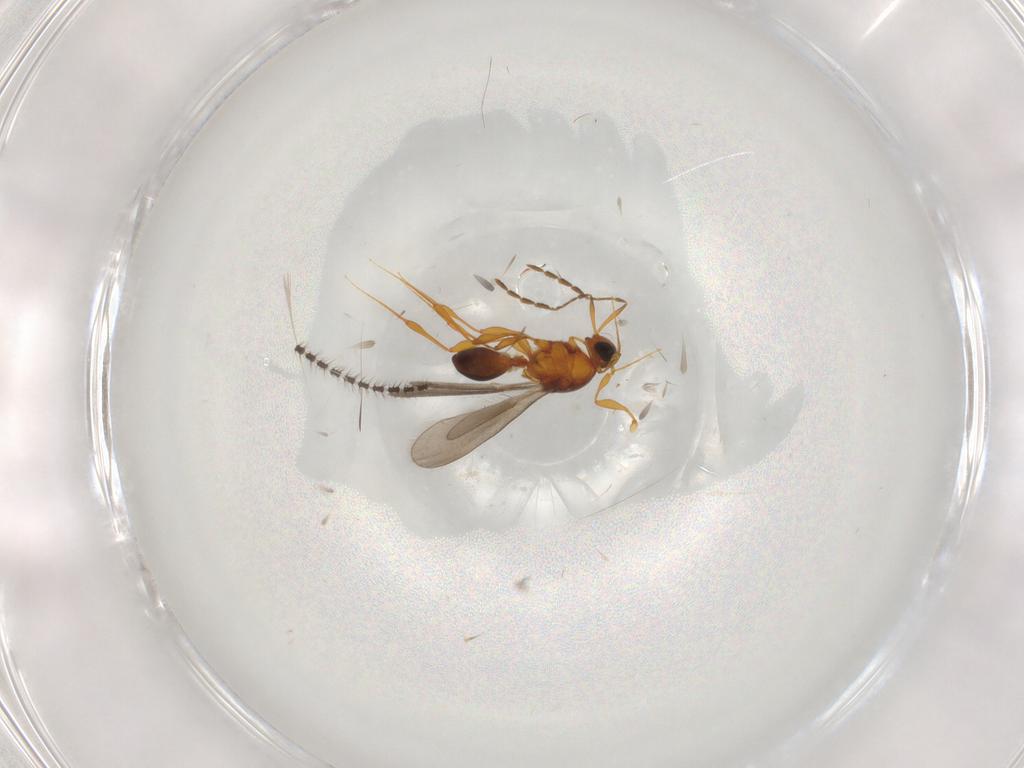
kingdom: Animalia
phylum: Arthropoda
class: Insecta
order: Hymenoptera
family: Platygastridae
